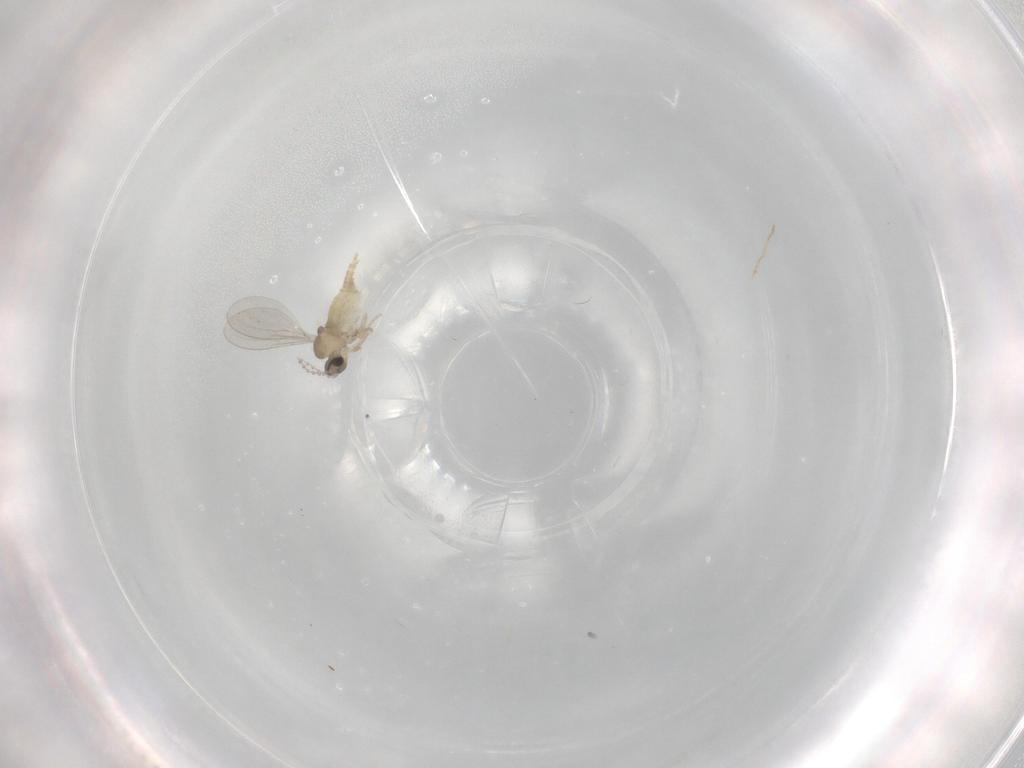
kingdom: Animalia
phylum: Arthropoda
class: Insecta
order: Diptera
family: Cecidomyiidae
